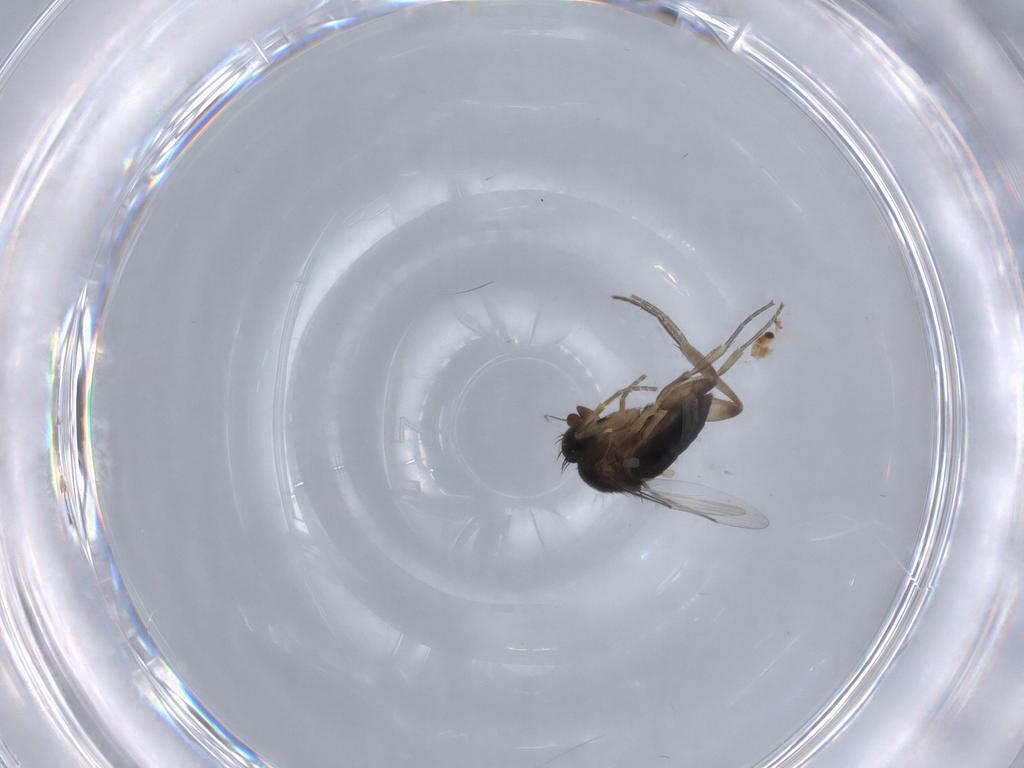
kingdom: Animalia
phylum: Arthropoda
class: Insecta
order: Diptera
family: Phoridae
